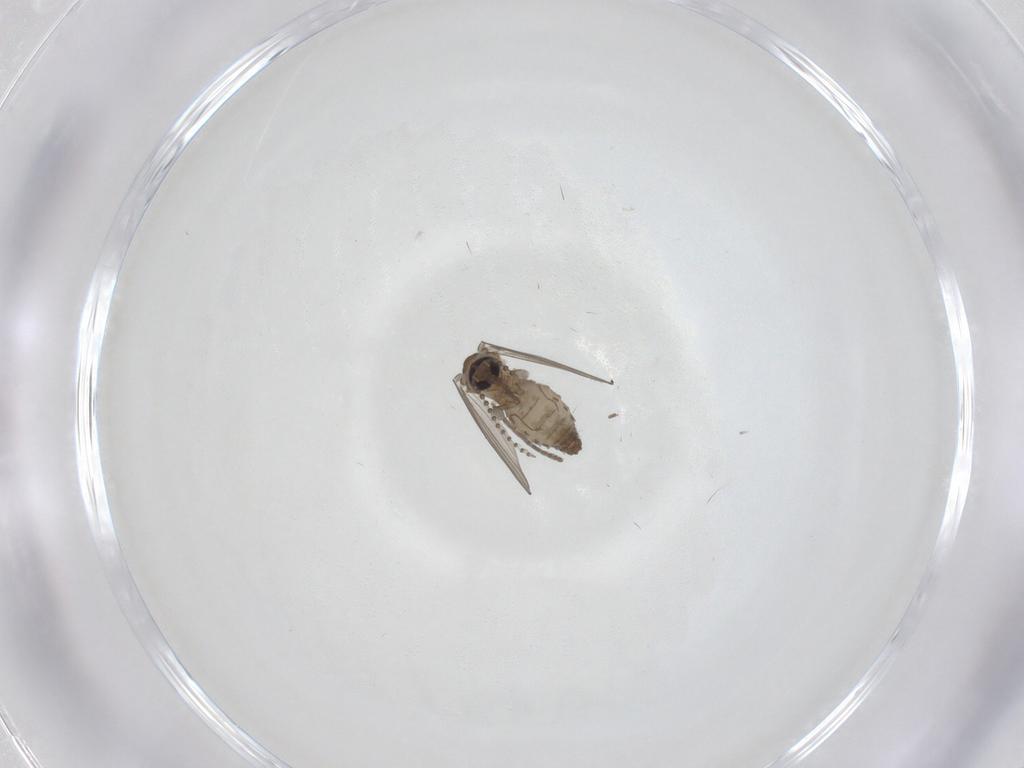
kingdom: Animalia
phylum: Arthropoda
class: Insecta
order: Diptera
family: Psychodidae
